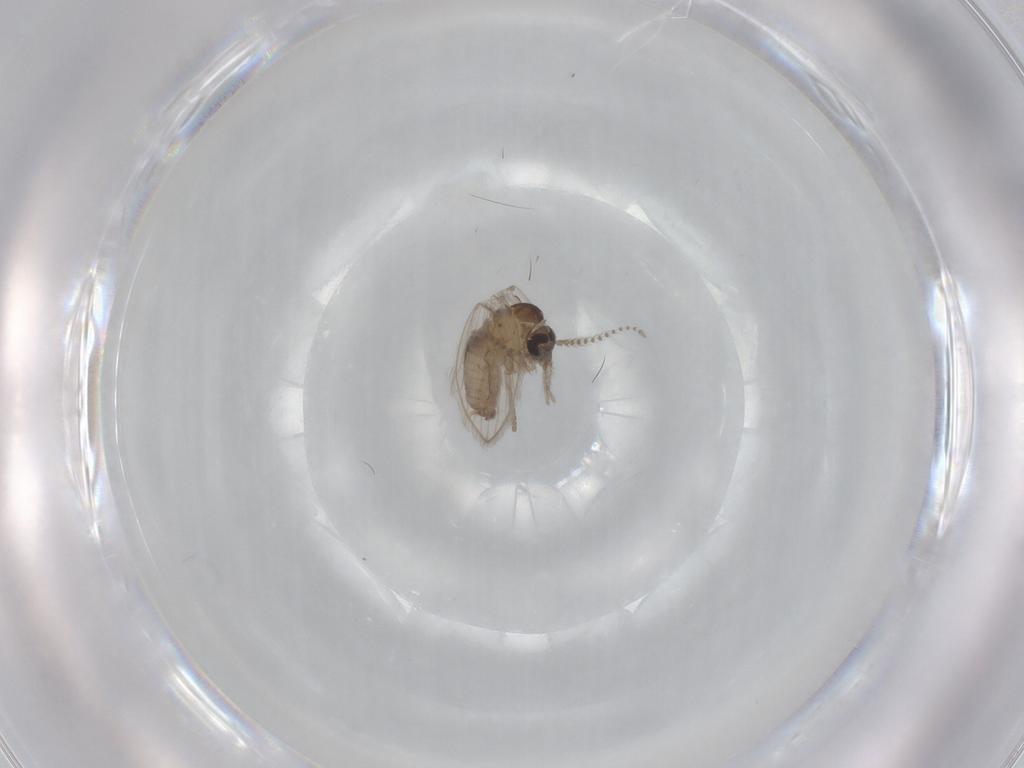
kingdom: Animalia
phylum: Arthropoda
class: Insecta
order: Diptera
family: Psychodidae
